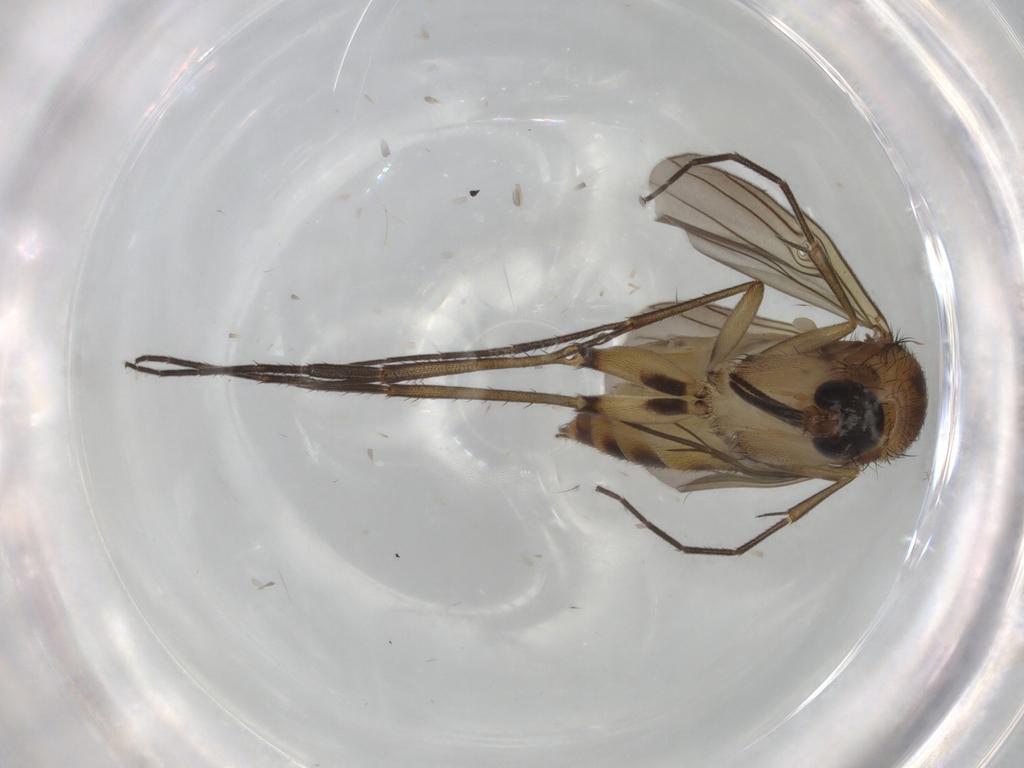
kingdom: Animalia
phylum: Arthropoda
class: Insecta
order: Diptera
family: Mycetophilidae
